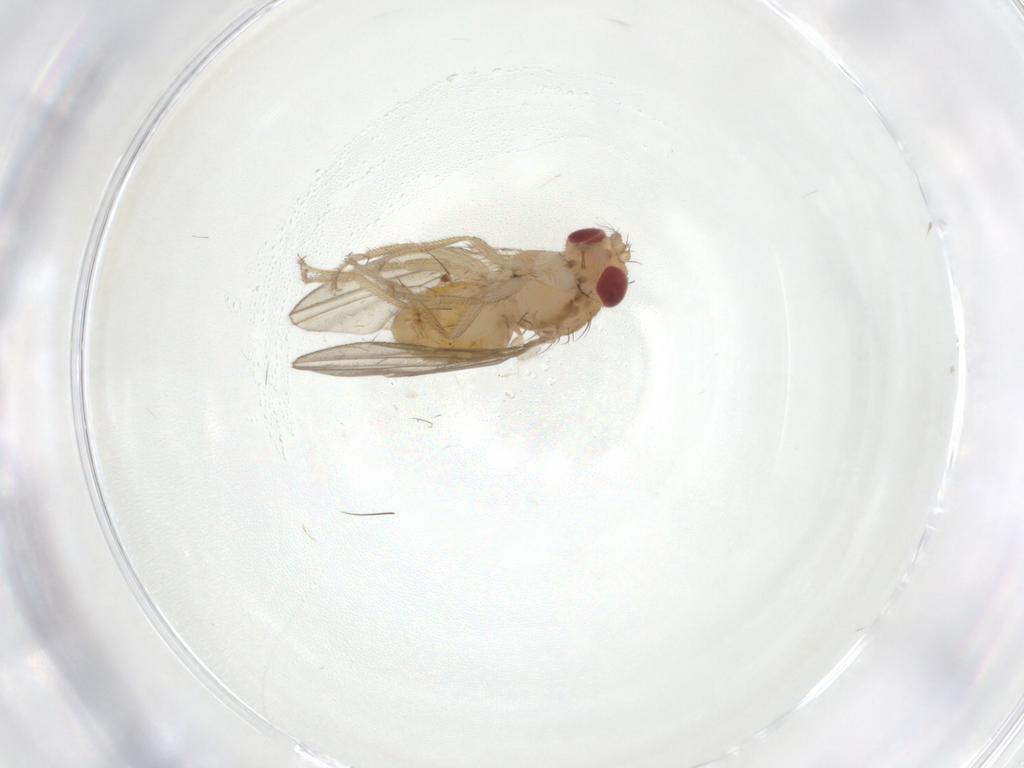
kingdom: Animalia
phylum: Arthropoda
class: Insecta
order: Diptera
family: Drosophilidae
